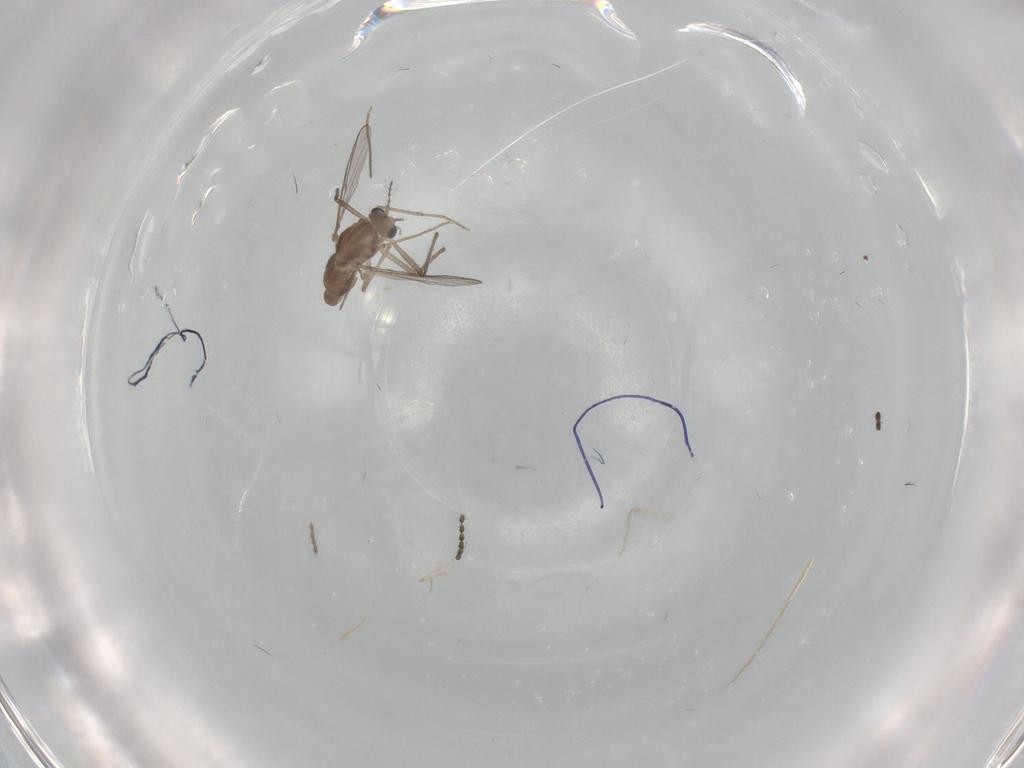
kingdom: Animalia
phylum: Arthropoda
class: Insecta
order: Diptera
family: Chironomidae
